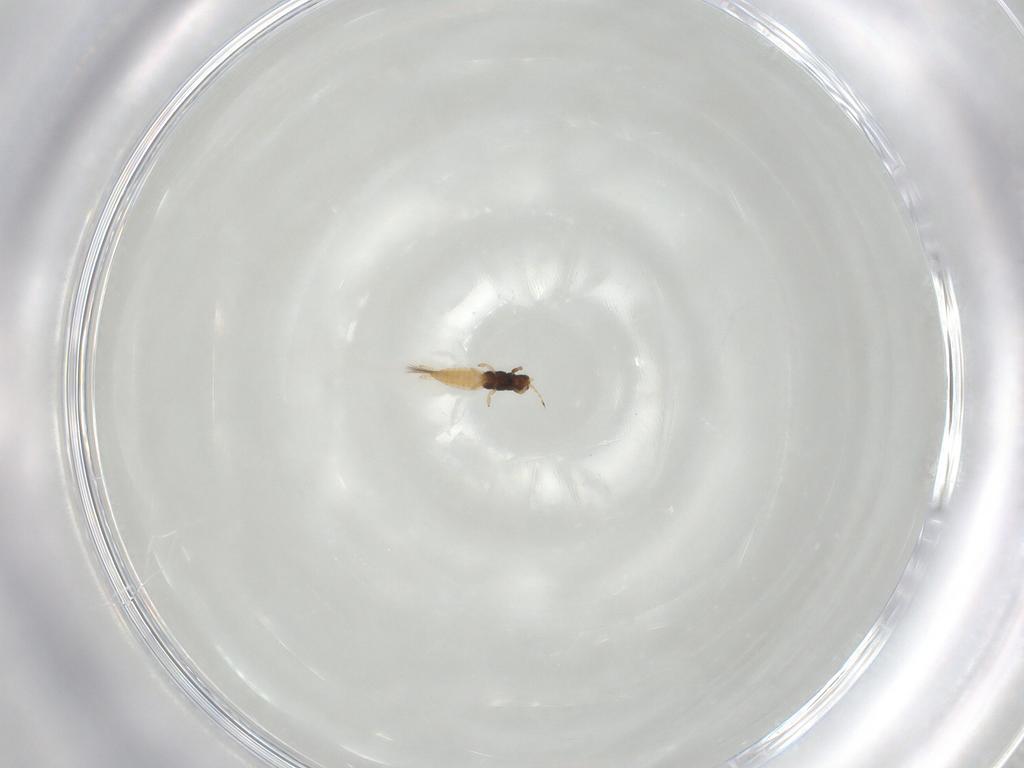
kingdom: Animalia
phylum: Arthropoda
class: Insecta
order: Thysanoptera
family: Thripidae
